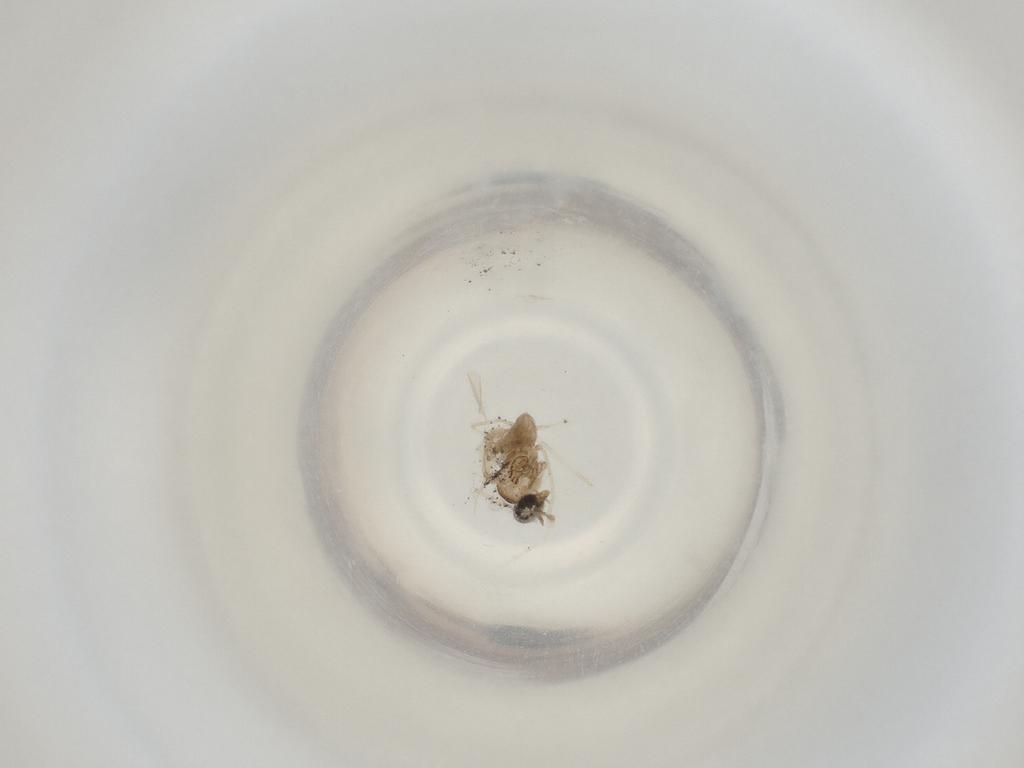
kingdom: Animalia
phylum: Arthropoda
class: Insecta
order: Diptera
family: Cecidomyiidae
